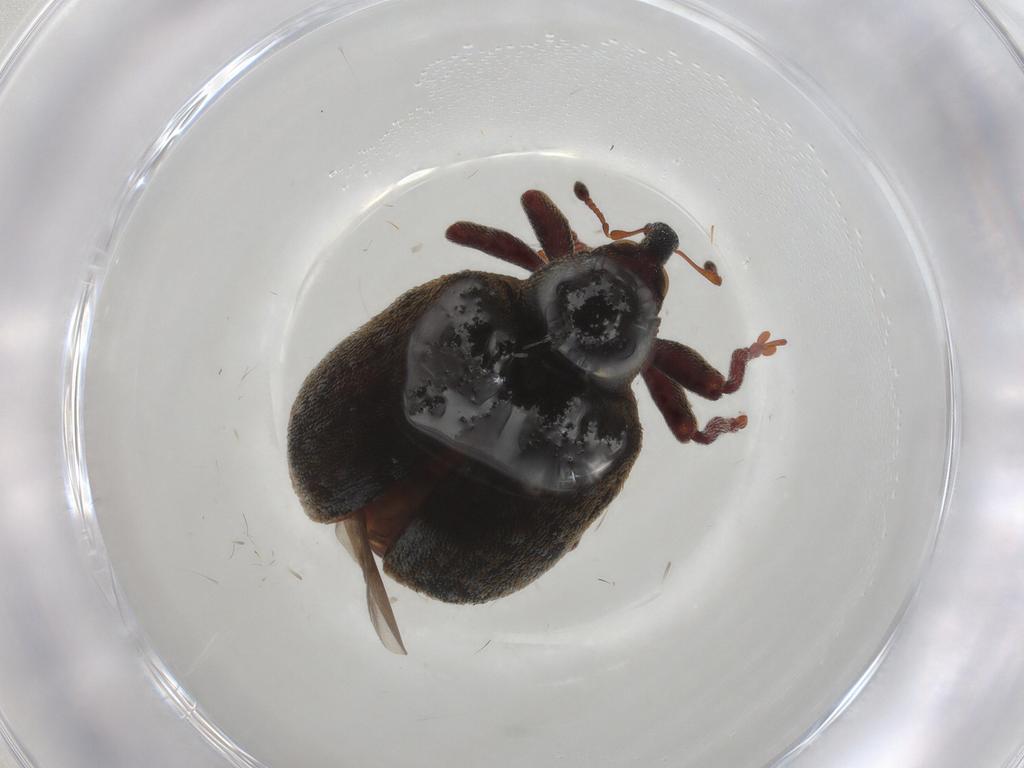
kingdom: Animalia
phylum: Arthropoda
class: Insecta
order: Coleoptera
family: Curculionidae
